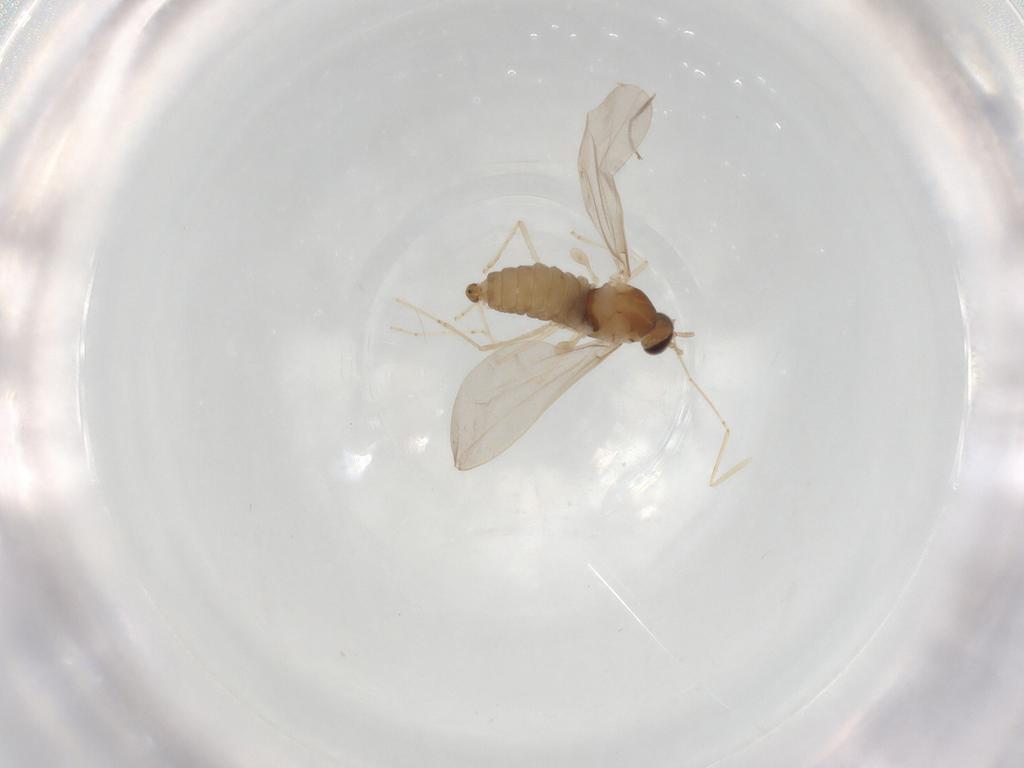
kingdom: Animalia
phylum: Arthropoda
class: Insecta
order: Diptera
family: Cecidomyiidae
